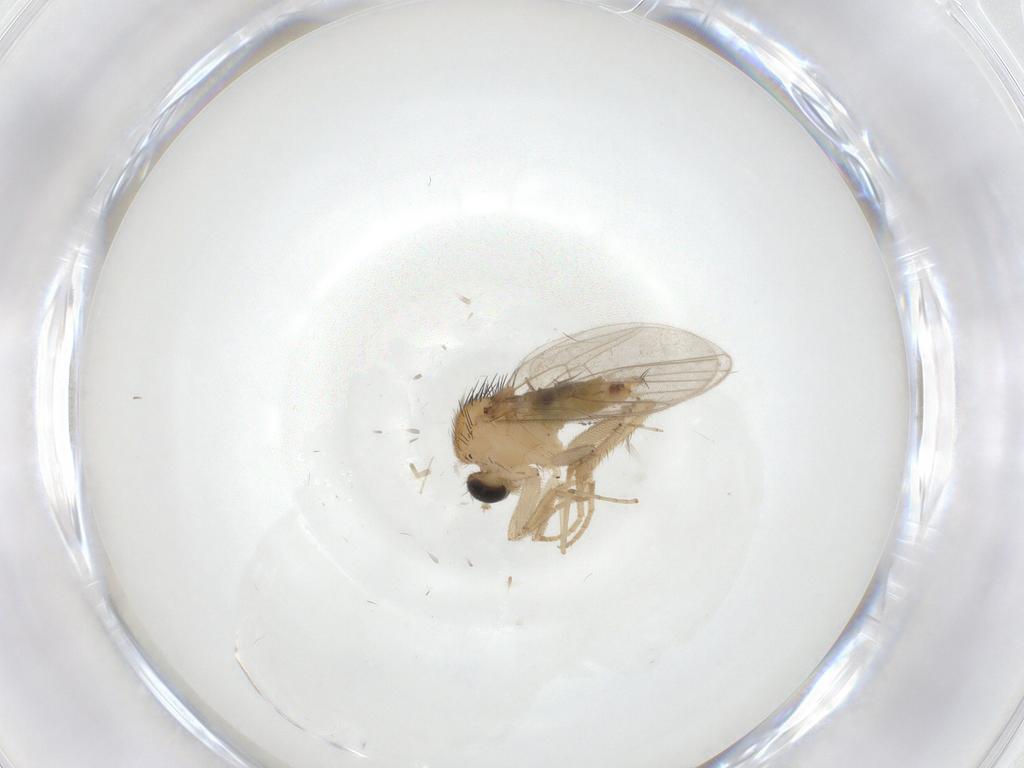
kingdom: Animalia
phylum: Arthropoda
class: Insecta
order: Diptera
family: Hybotidae
